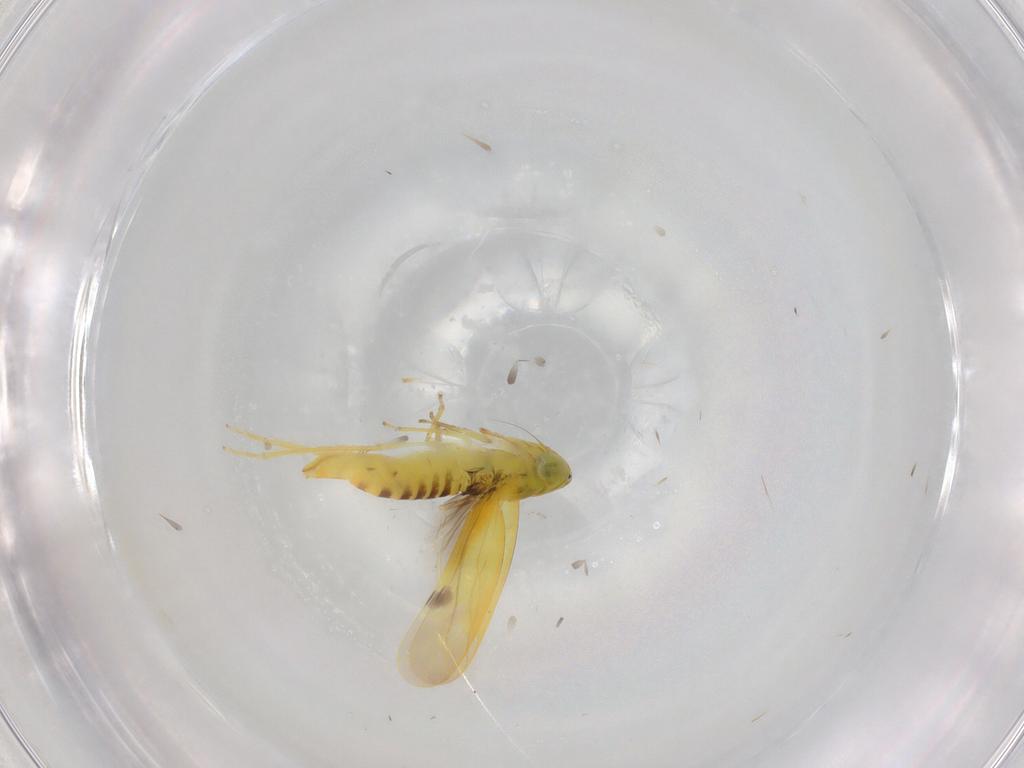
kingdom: Animalia
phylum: Arthropoda
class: Insecta
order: Hemiptera
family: Cicadellidae
